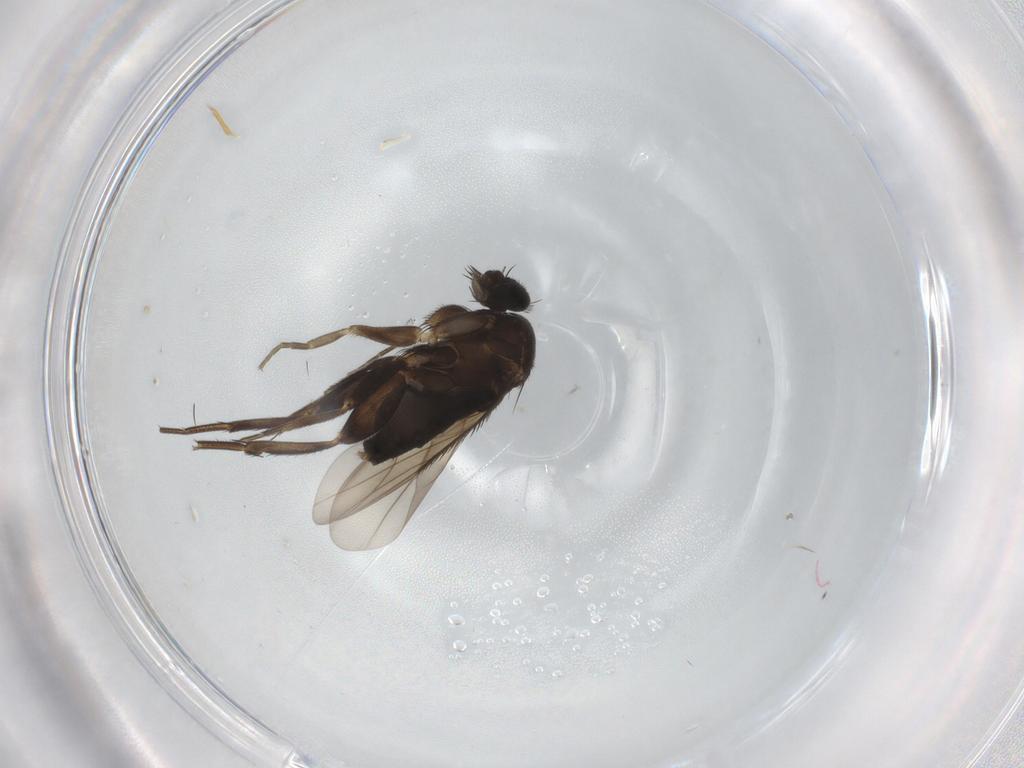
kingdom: Animalia
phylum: Arthropoda
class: Insecta
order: Diptera
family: Phoridae
